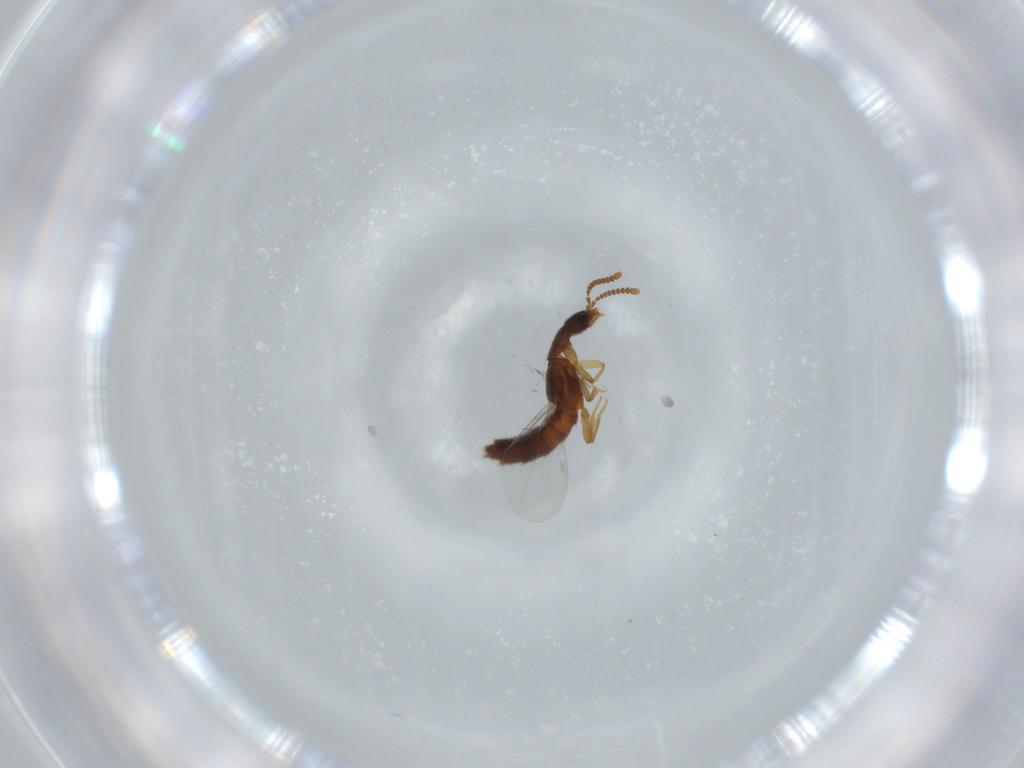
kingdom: Animalia
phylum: Arthropoda
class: Insecta
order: Coleoptera
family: Staphylinidae
